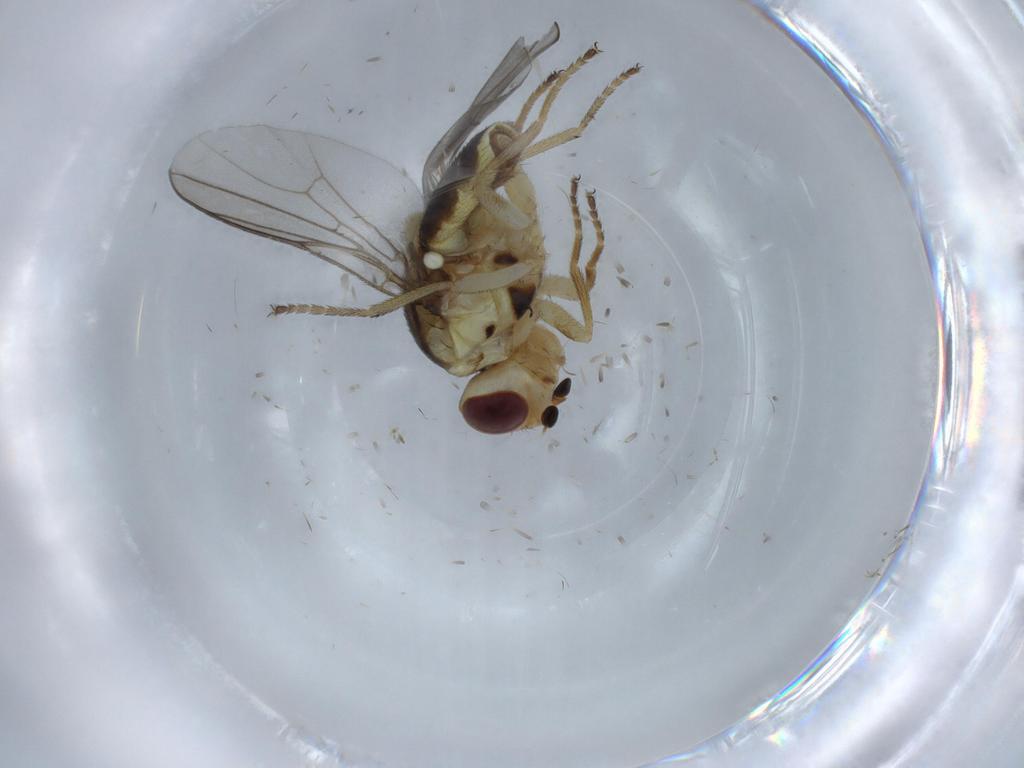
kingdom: Animalia
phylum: Arthropoda
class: Insecta
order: Diptera
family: Chloropidae
